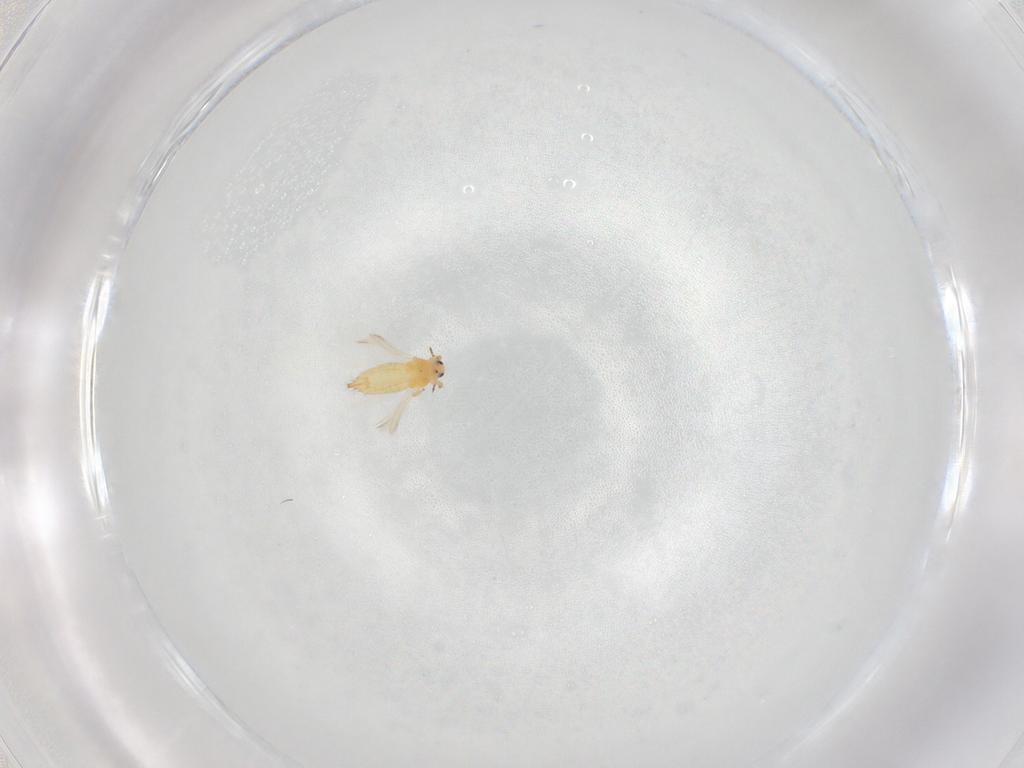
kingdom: Animalia
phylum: Arthropoda
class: Insecta
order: Thysanoptera
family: Thripidae
